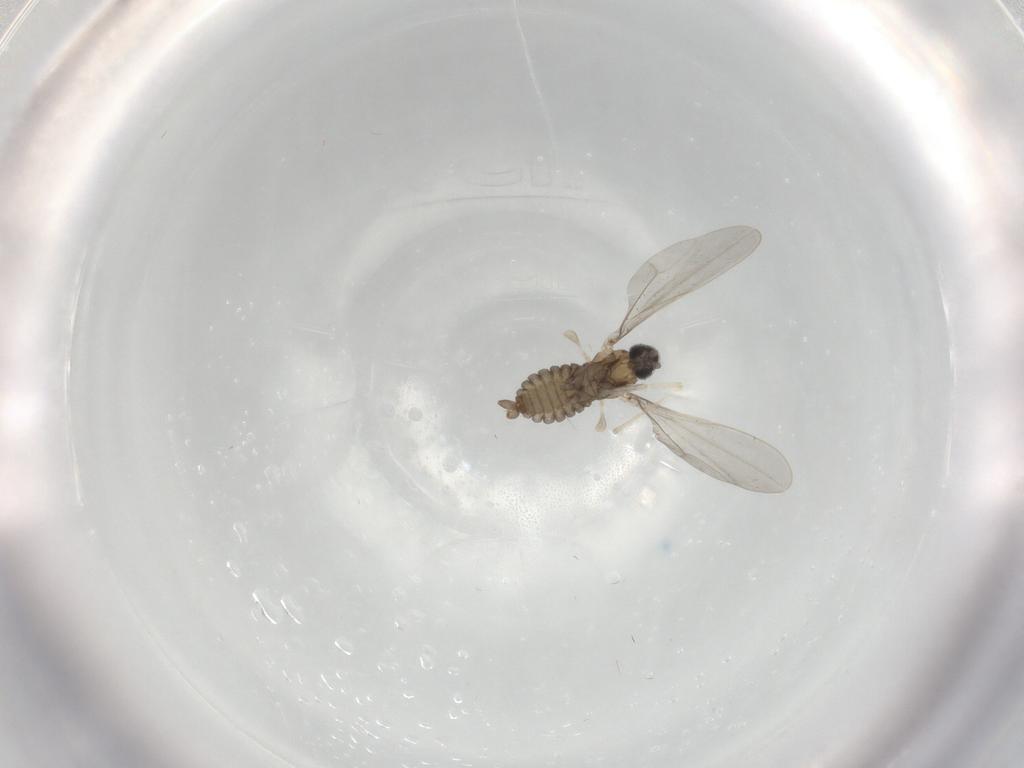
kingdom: Animalia
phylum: Arthropoda
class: Insecta
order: Diptera
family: Cecidomyiidae
